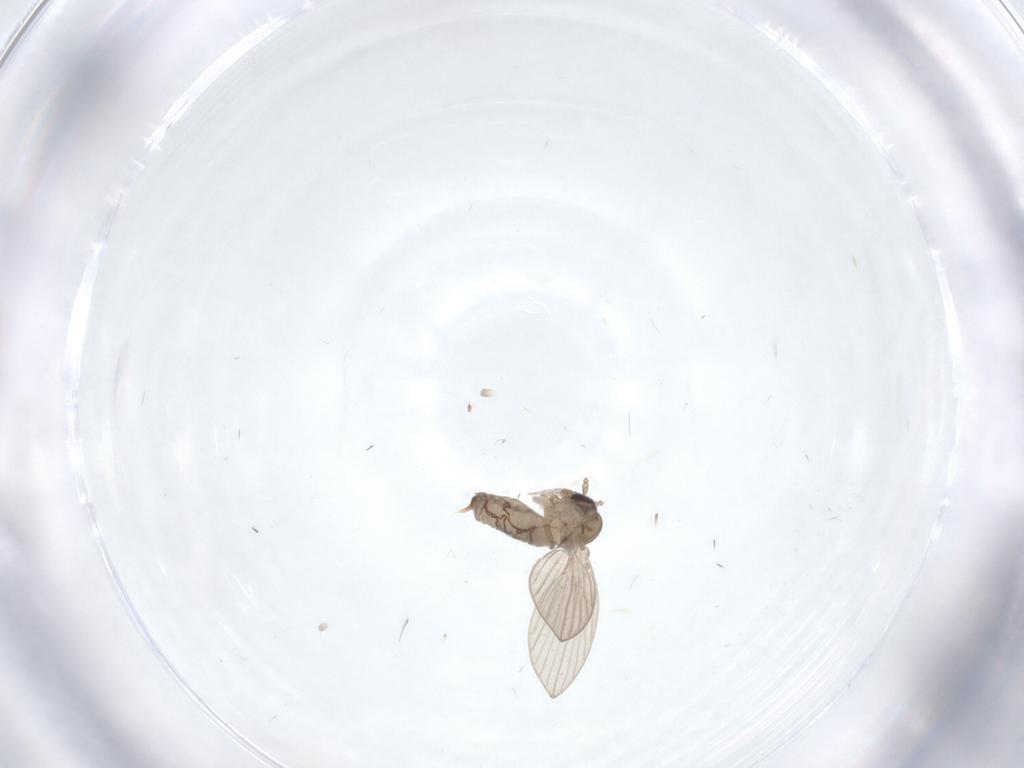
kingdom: Animalia
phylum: Arthropoda
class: Insecta
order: Diptera
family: Psychodidae
